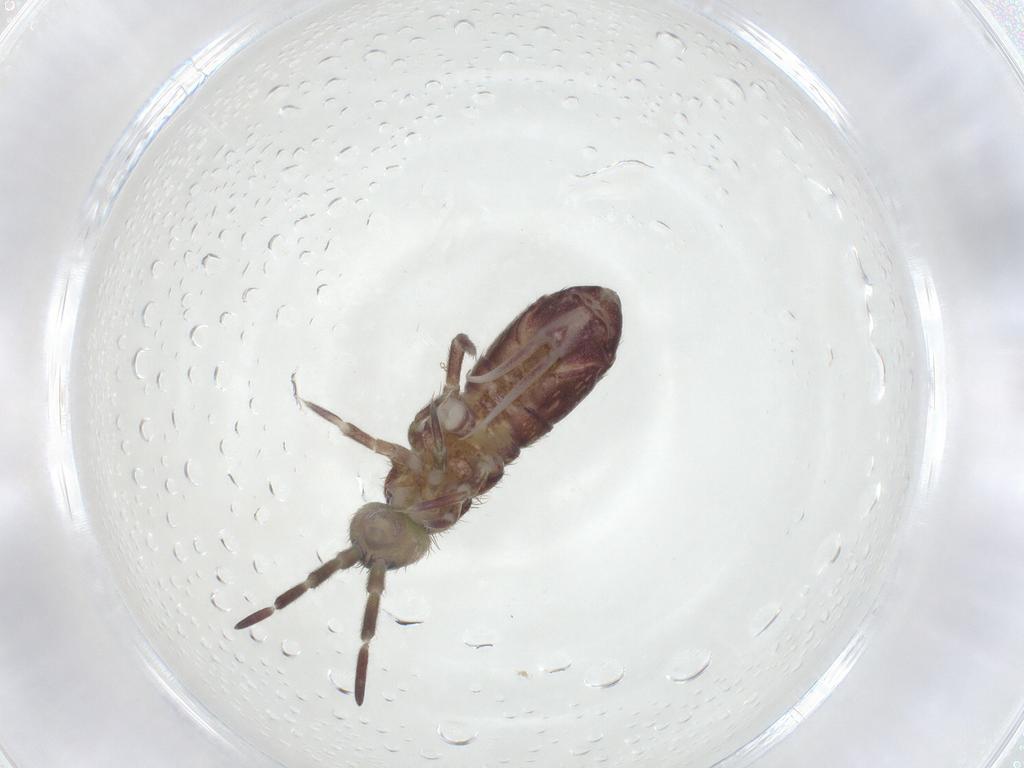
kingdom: Animalia
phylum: Arthropoda
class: Collembola
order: Entomobryomorpha
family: Isotomidae
